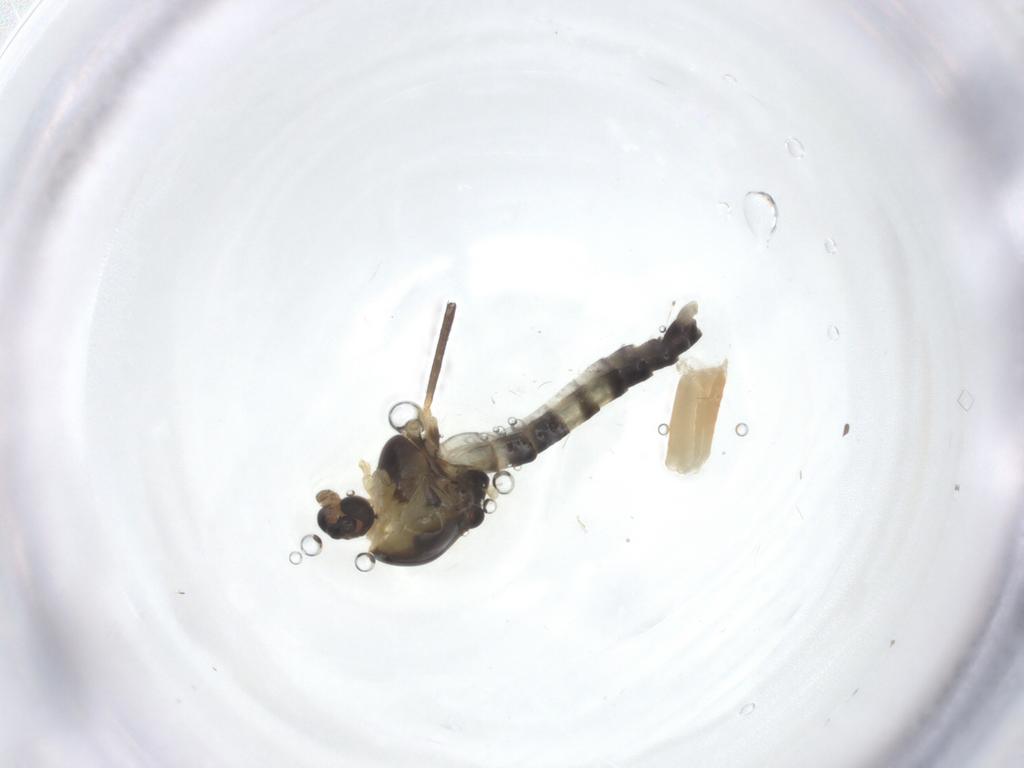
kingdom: Animalia
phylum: Arthropoda
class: Insecta
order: Diptera
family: Chironomidae
